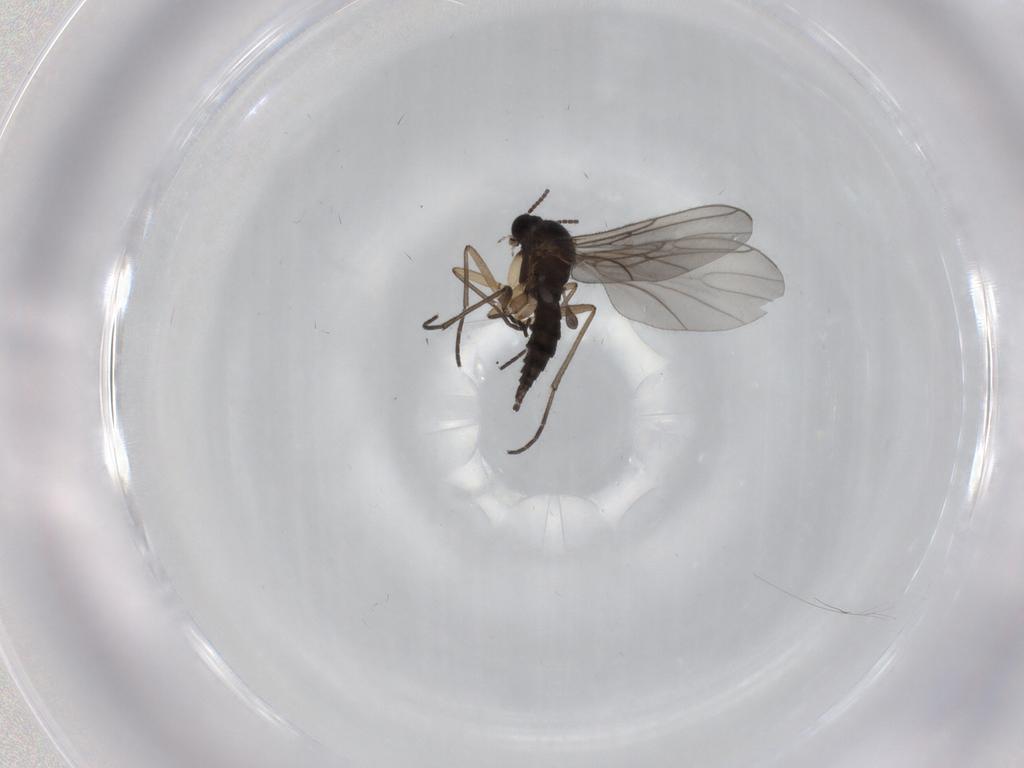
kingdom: Animalia
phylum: Arthropoda
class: Insecta
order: Diptera
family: Sciaridae
